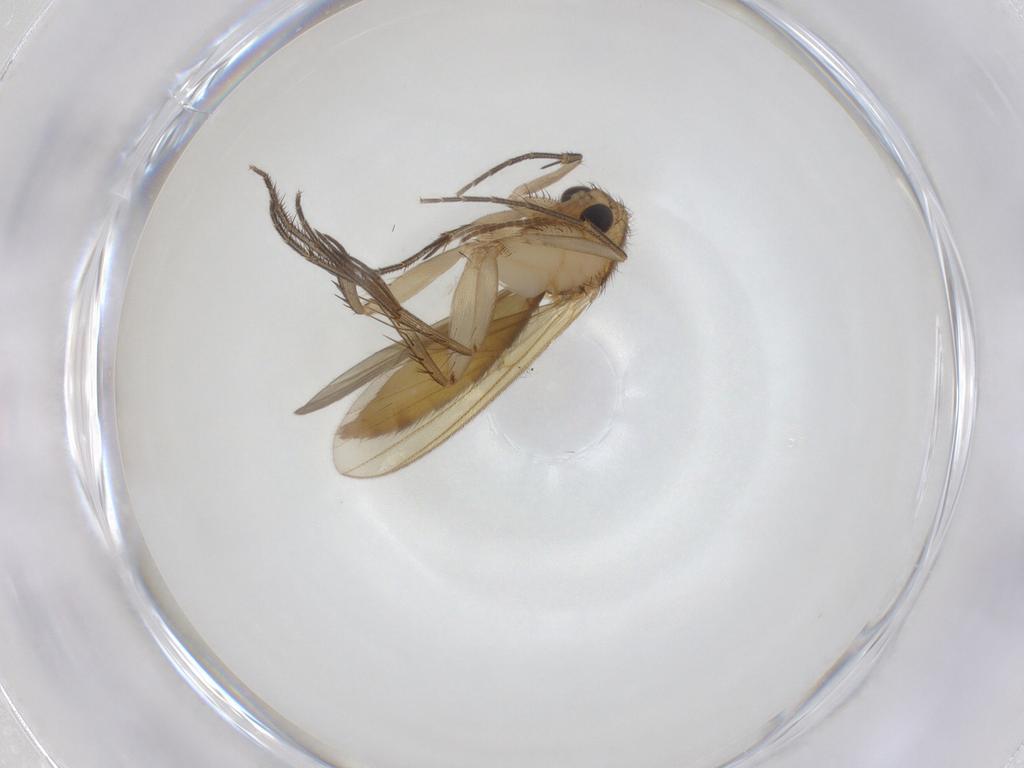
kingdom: Animalia
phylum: Arthropoda
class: Insecta
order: Diptera
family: Mycetophilidae
